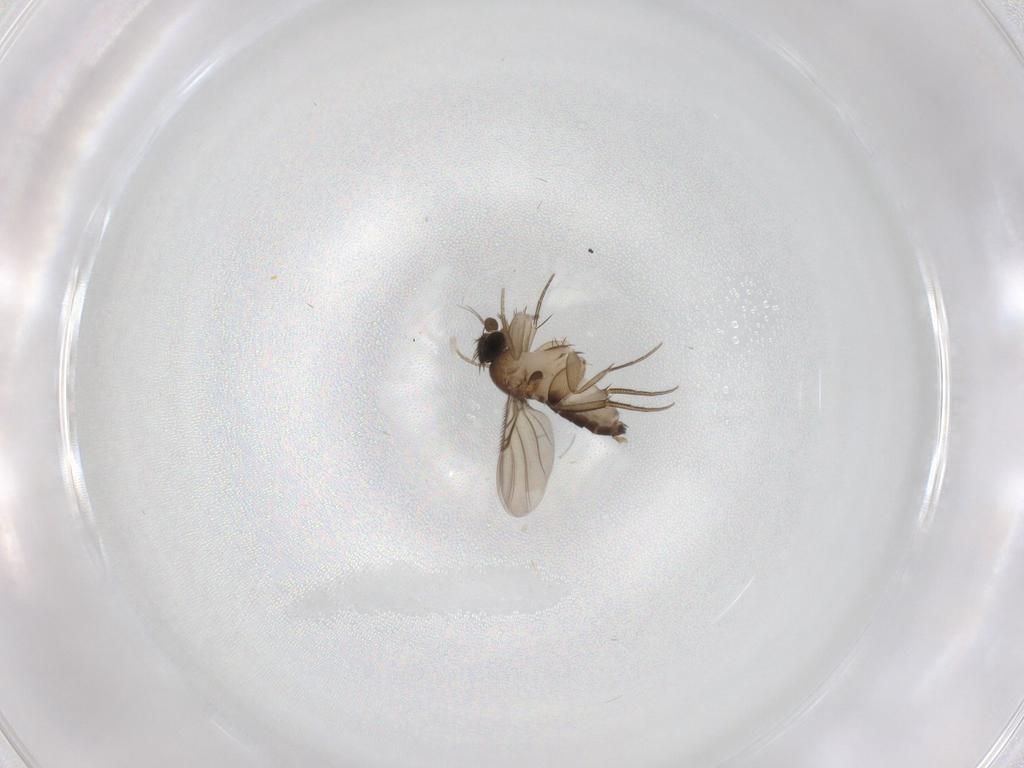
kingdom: Animalia
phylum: Arthropoda
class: Insecta
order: Diptera
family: Phoridae
